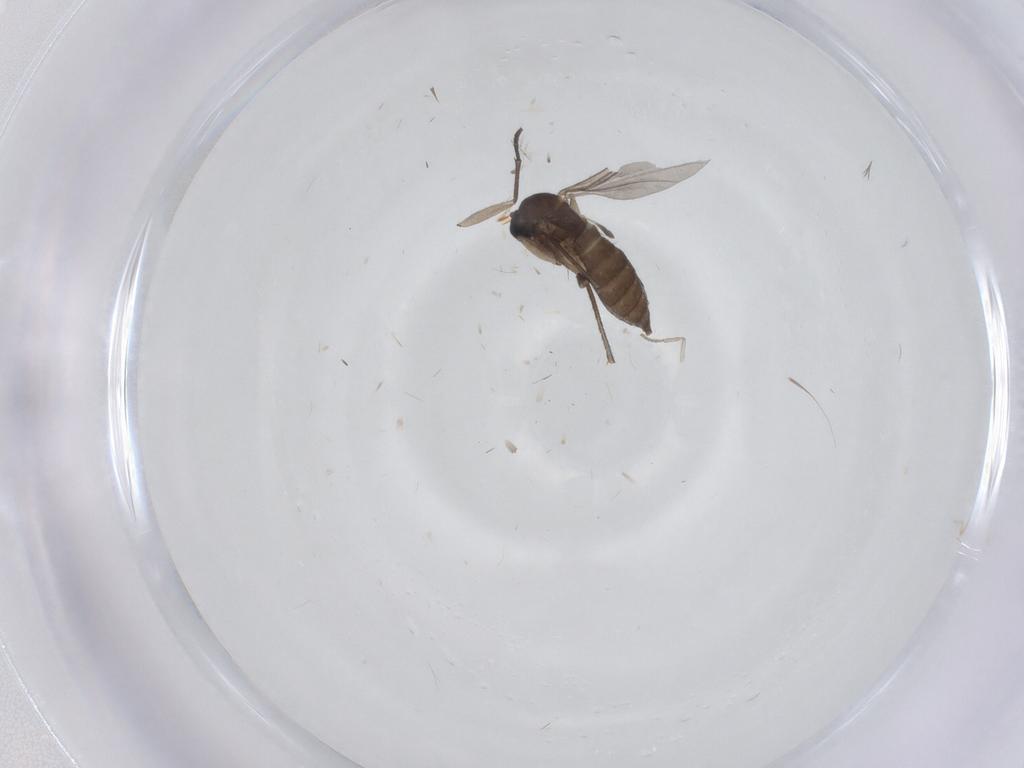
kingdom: Animalia
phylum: Arthropoda
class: Insecta
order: Diptera
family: Sciaridae
